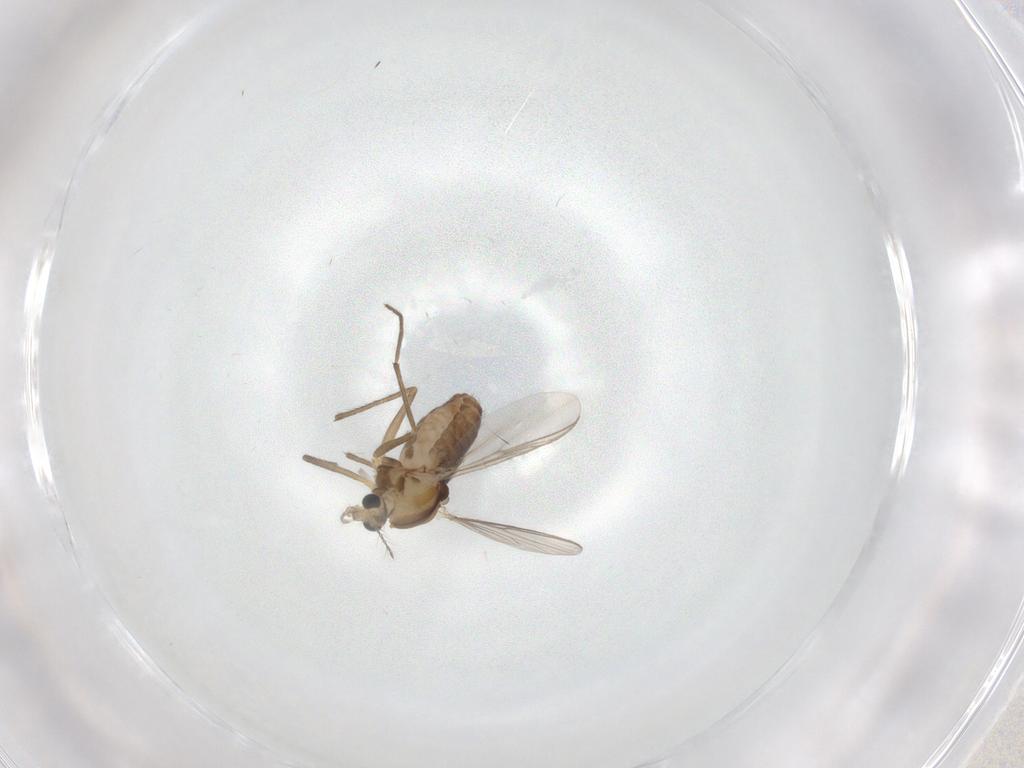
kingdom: Animalia
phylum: Arthropoda
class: Insecta
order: Diptera
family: Chironomidae
